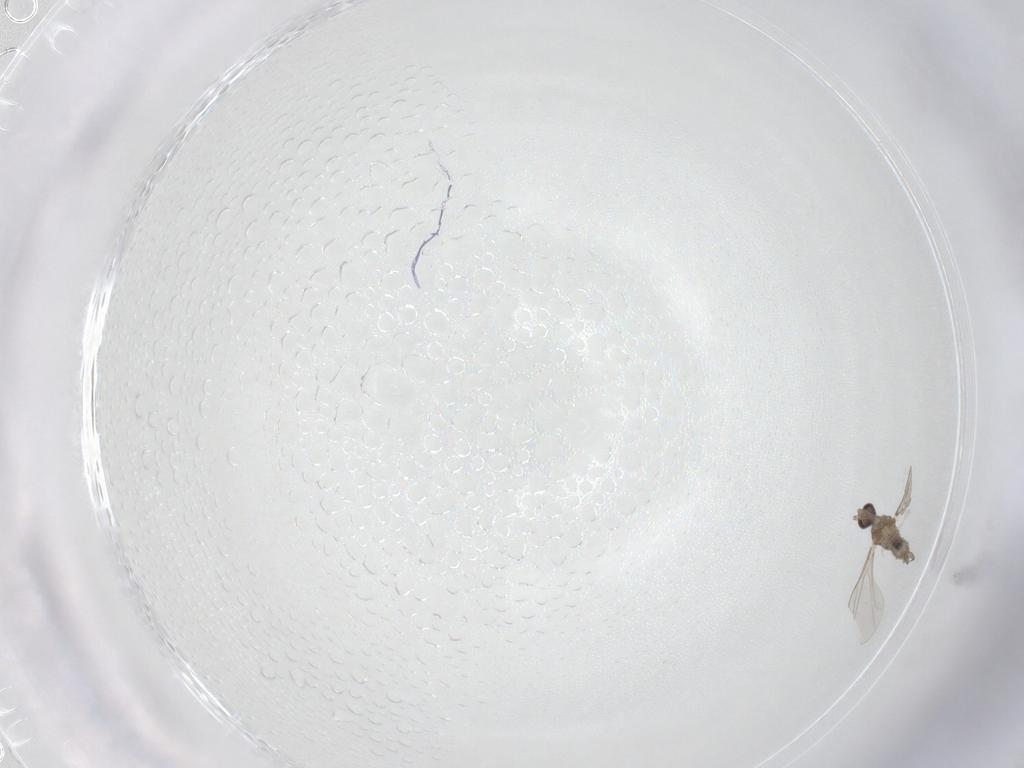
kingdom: Animalia
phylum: Arthropoda
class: Insecta
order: Diptera
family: Cecidomyiidae
